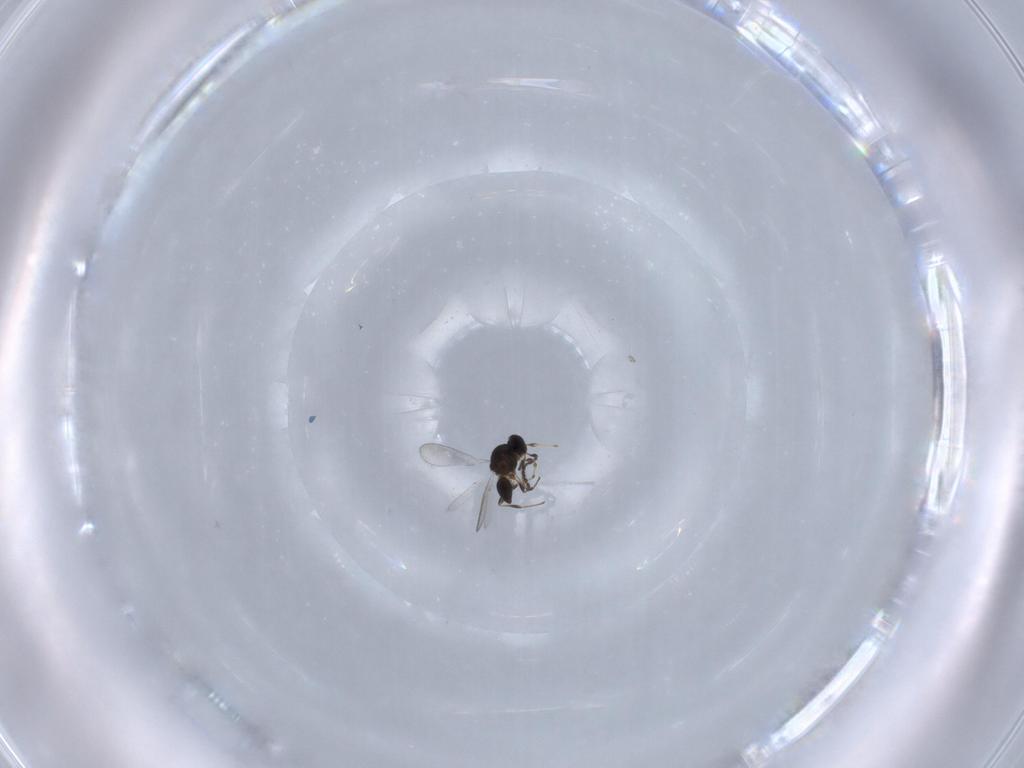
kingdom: Animalia
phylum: Arthropoda
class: Insecta
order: Hymenoptera
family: Platygastridae
